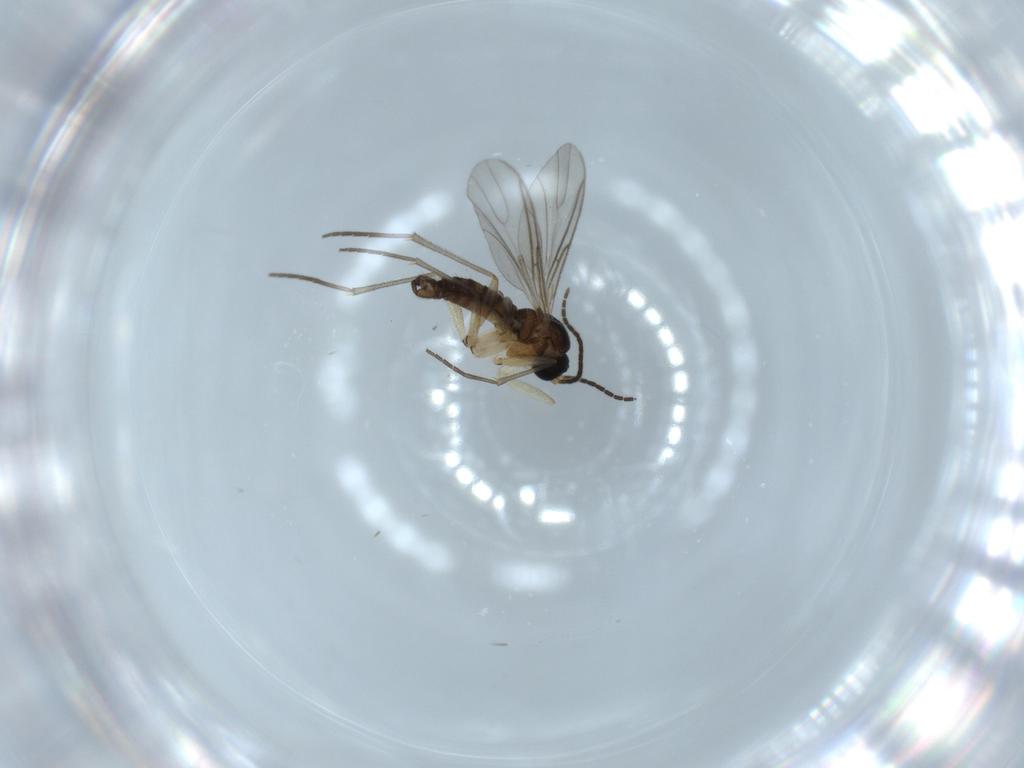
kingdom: Animalia
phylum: Arthropoda
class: Insecta
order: Diptera
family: Sciaridae
